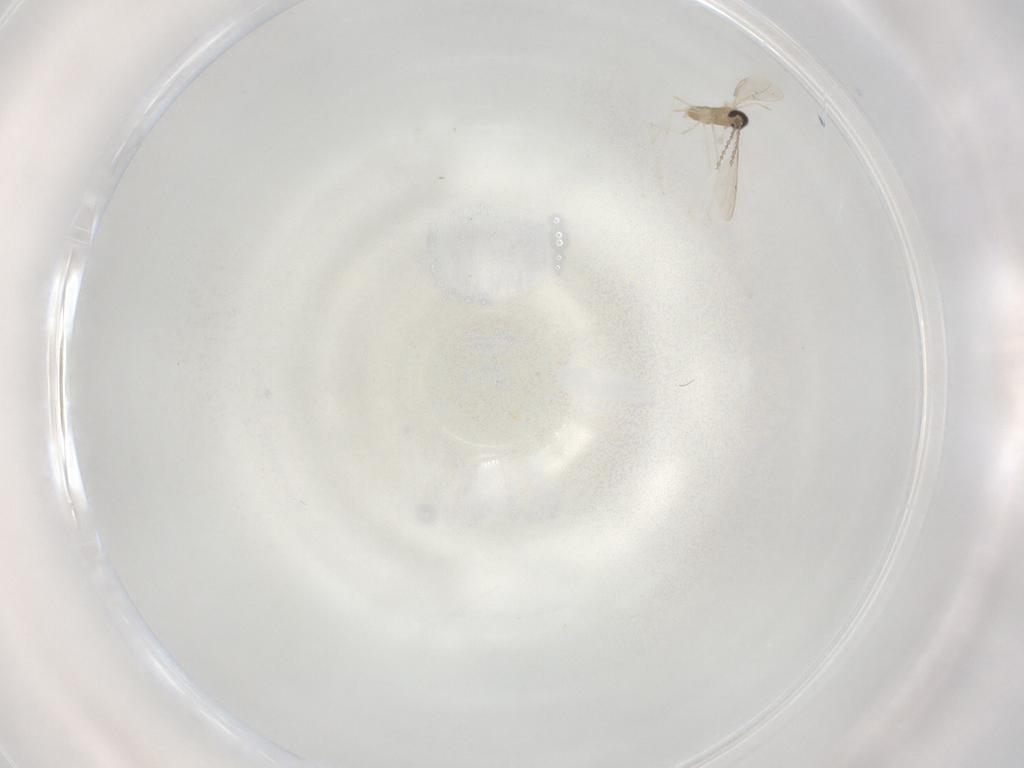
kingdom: Animalia
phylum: Arthropoda
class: Insecta
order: Diptera
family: Cecidomyiidae
